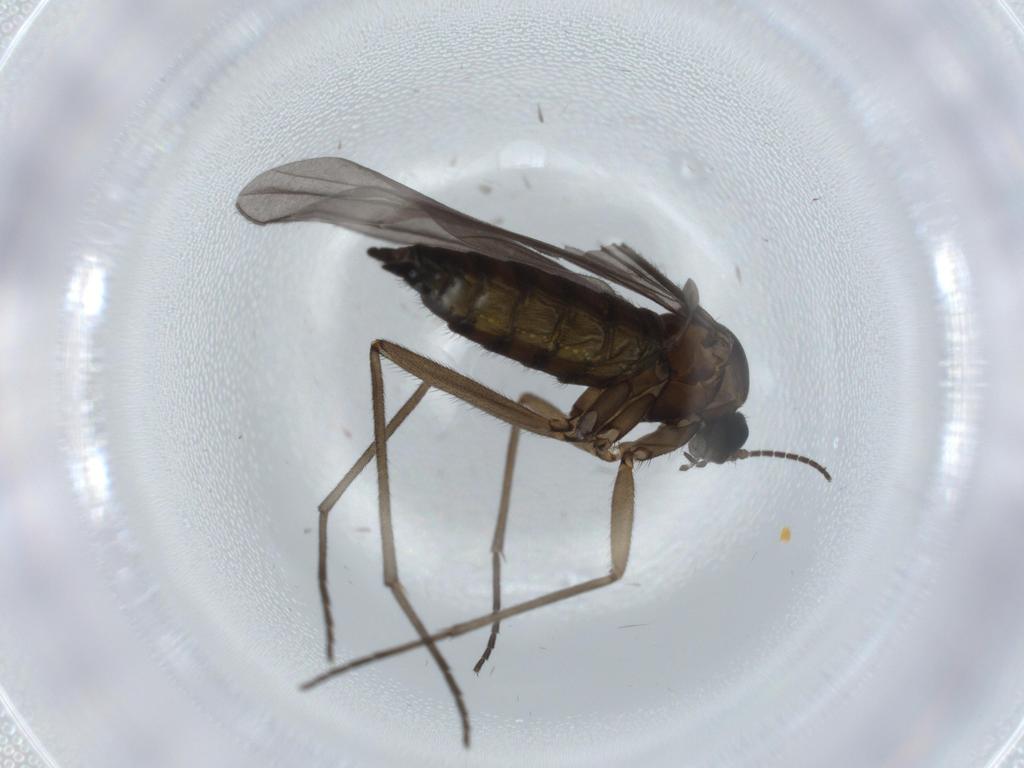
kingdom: Animalia
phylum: Arthropoda
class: Insecta
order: Diptera
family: Sciaridae
